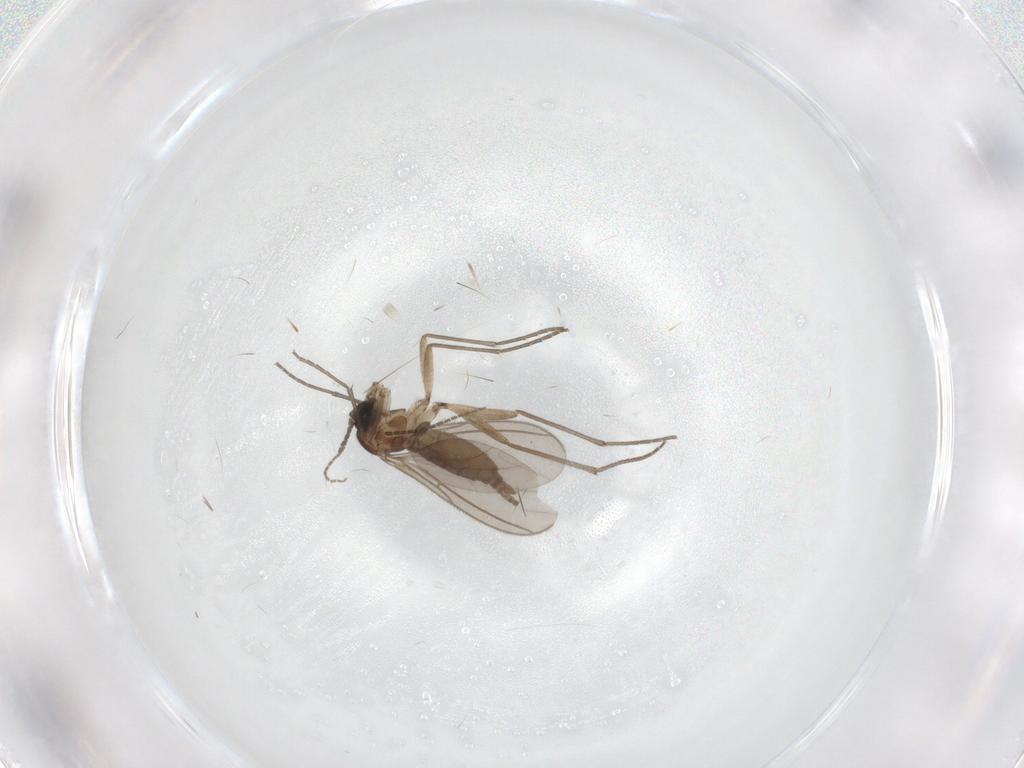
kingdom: Animalia
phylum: Arthropoda
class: Insecta
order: Diptera
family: Sciaridae
